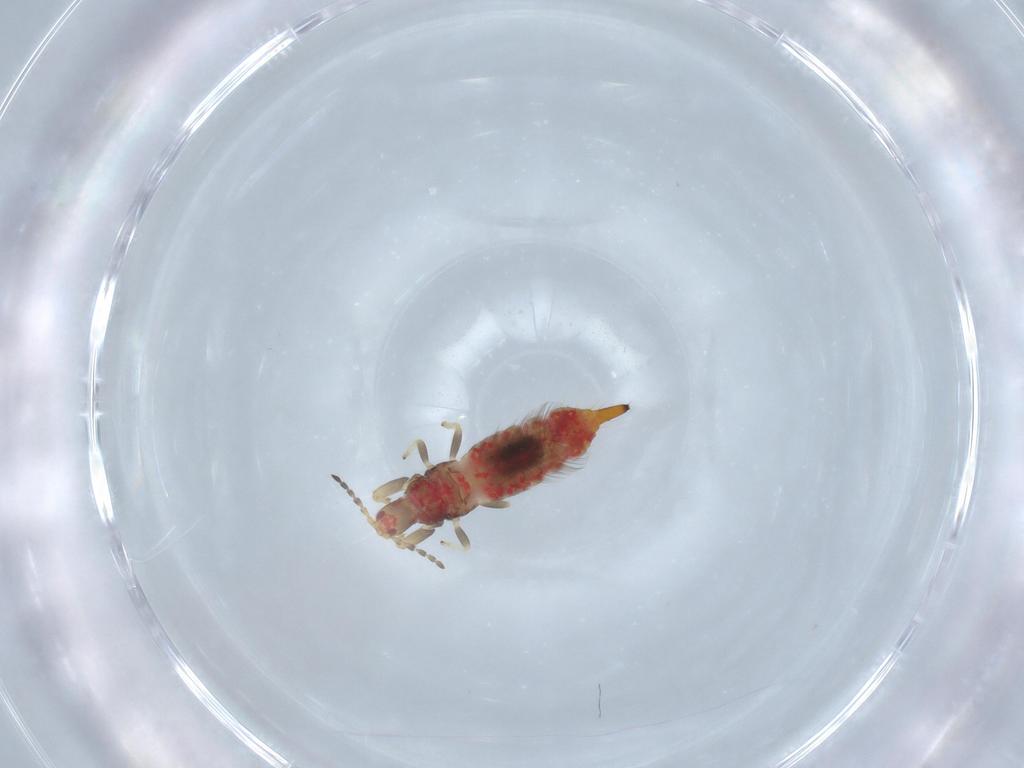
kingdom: Animalia
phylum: Arthropoda
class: Insecta
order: Thysanoptera
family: Phlaeothripidae
